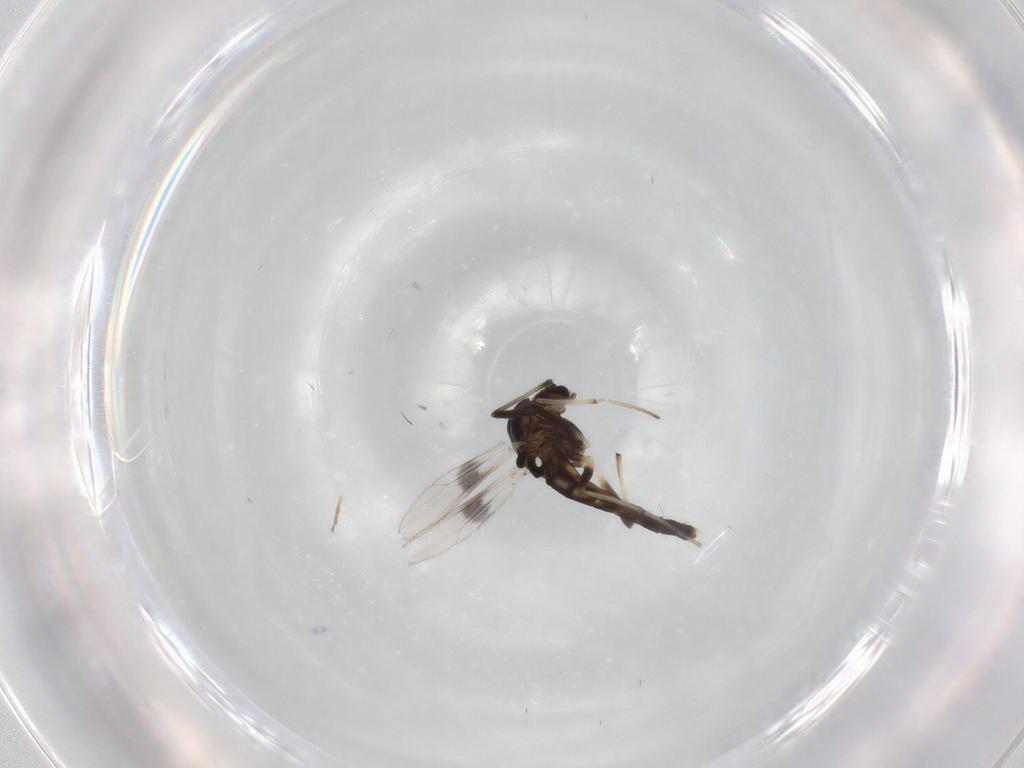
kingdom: Animalia
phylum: Arthropoda
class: Insecta
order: Diptera
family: Chironomidae
